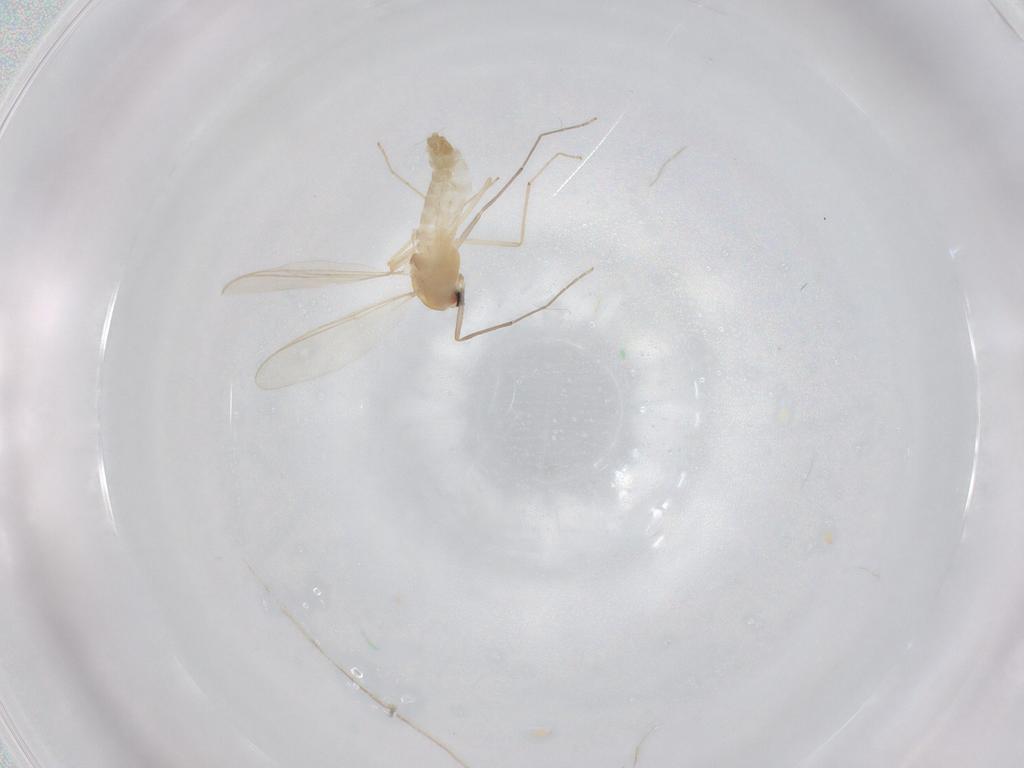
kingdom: Animalia
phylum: Arthropoda
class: Insecta
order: Diptera
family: Chironomidae
